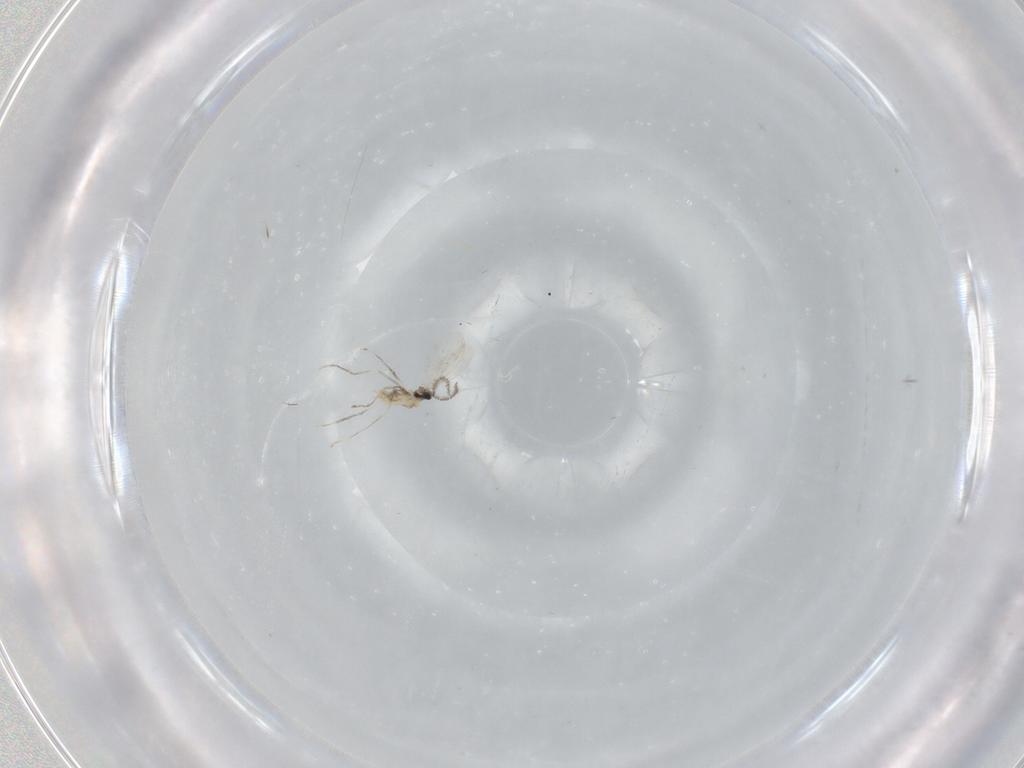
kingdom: Animalia
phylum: Arthropoda
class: Insecta
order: Diptera
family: Cecidomyiidae
